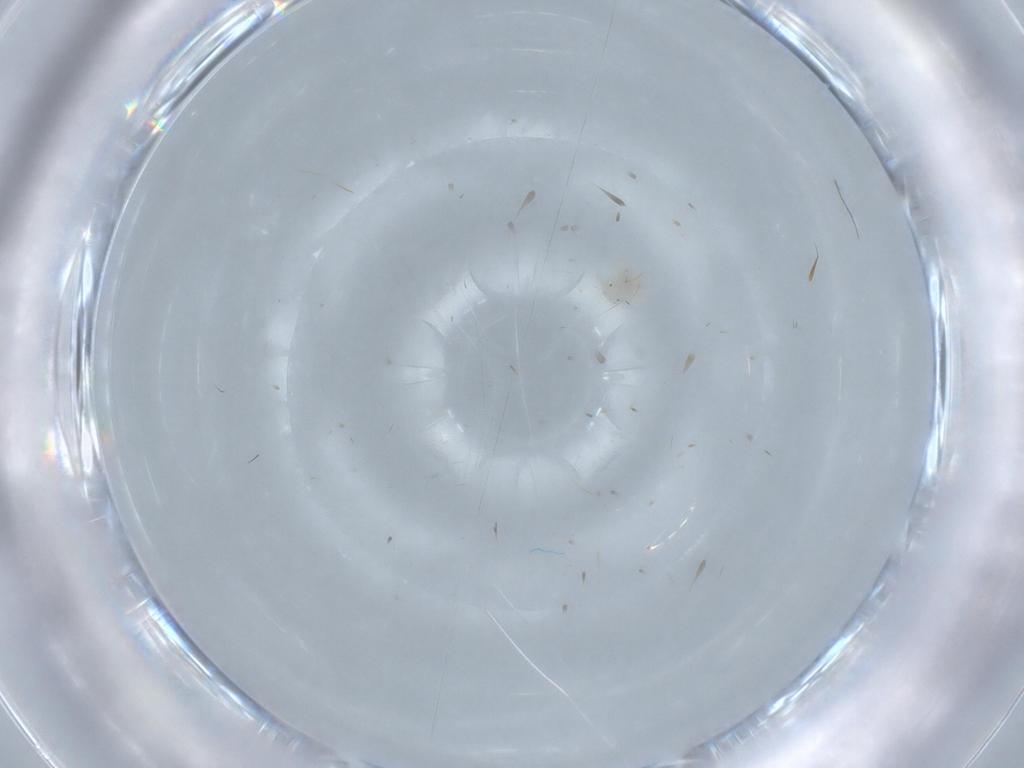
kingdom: Animalia
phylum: Arthropoda
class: Arachnida
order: Trombidiformes
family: Anystidae
